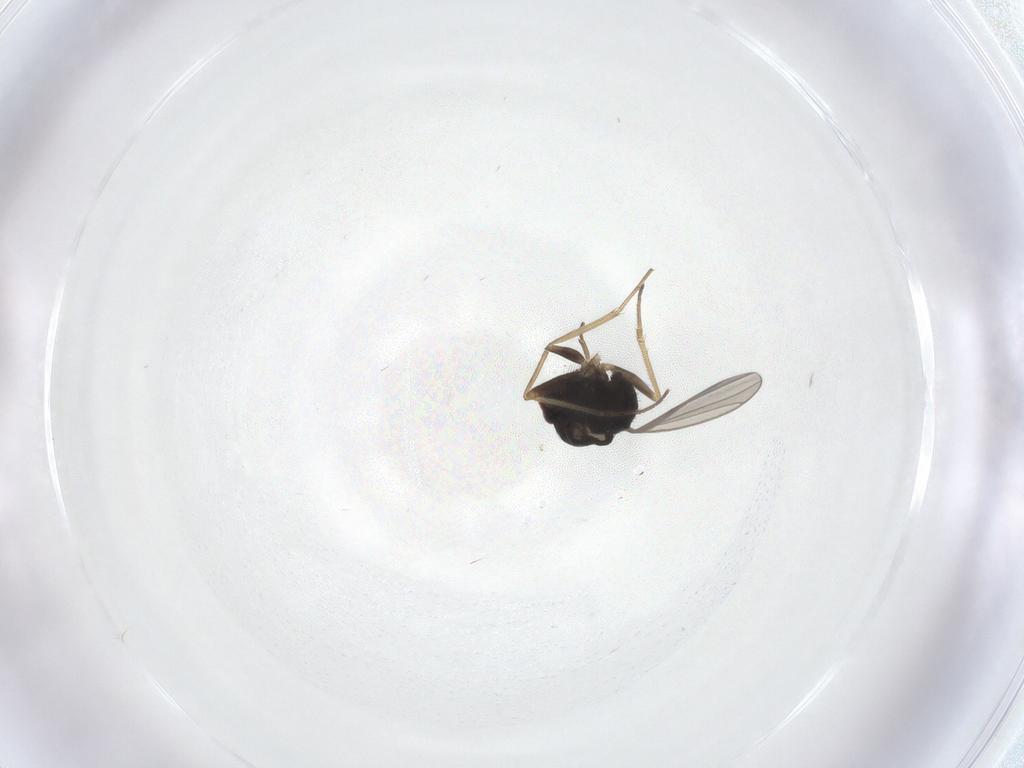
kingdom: Animalia
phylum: Arthropoda
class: Insecta
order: Diptera
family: Dolichopodidae
